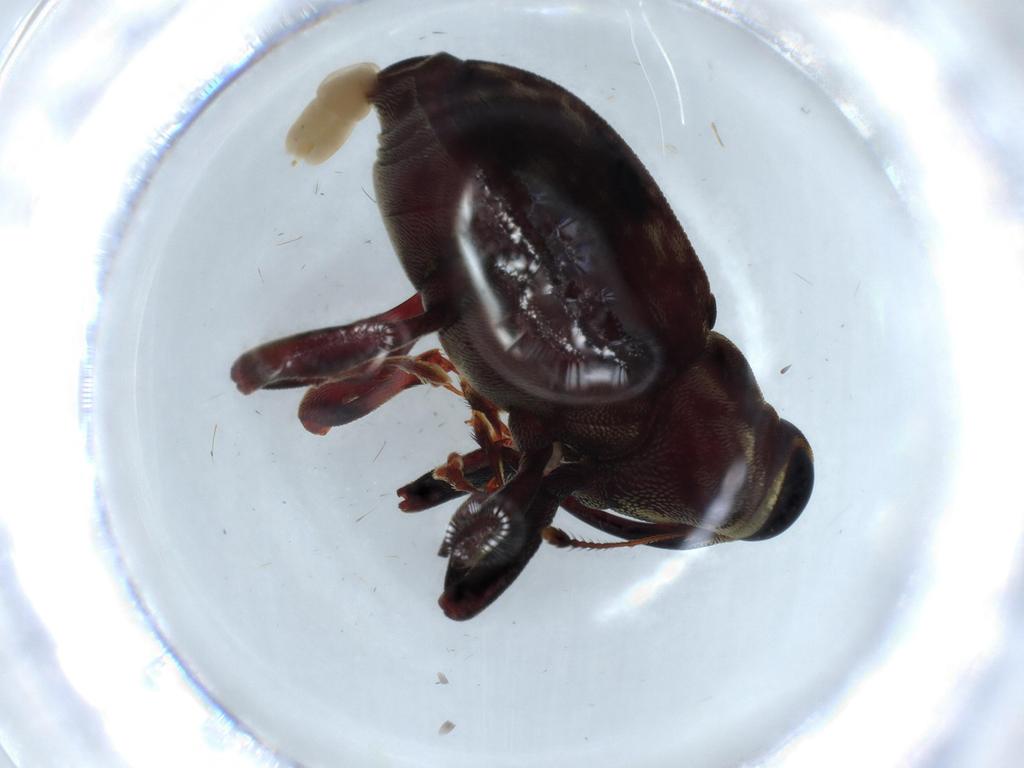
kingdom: Animalia
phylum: Arthropoda
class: Insecta
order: Coleoptera
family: Curculionidae
